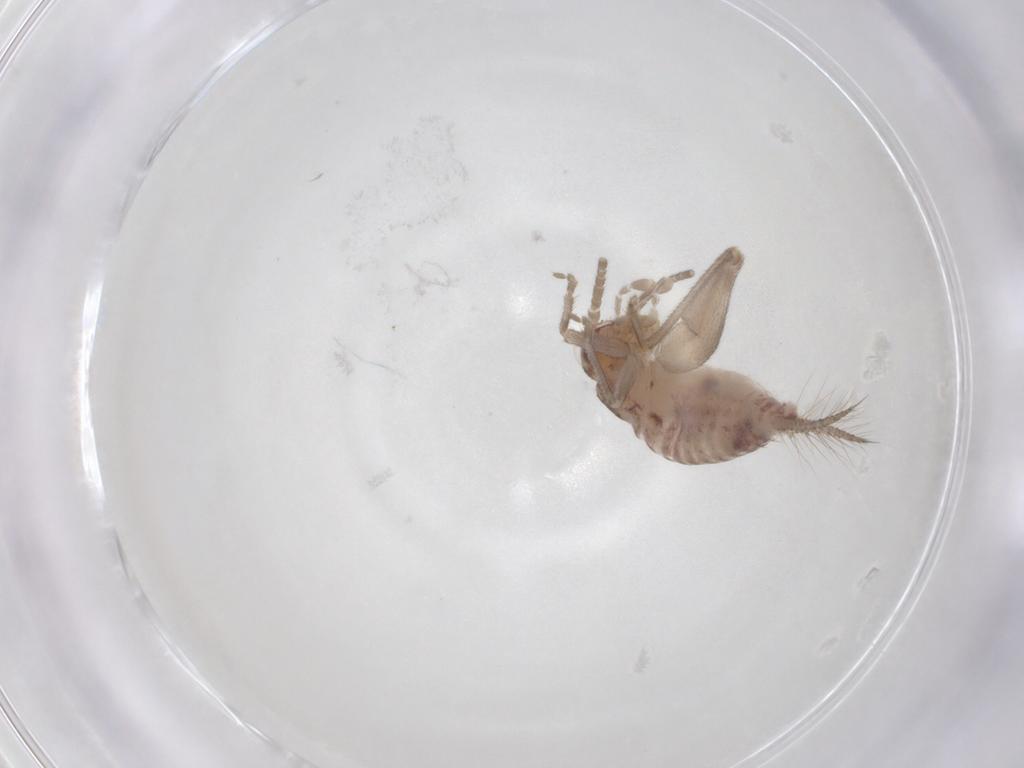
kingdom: Animalia
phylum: Arthropoda
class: Insecta
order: Orthoptera
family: Trigonidiidae
